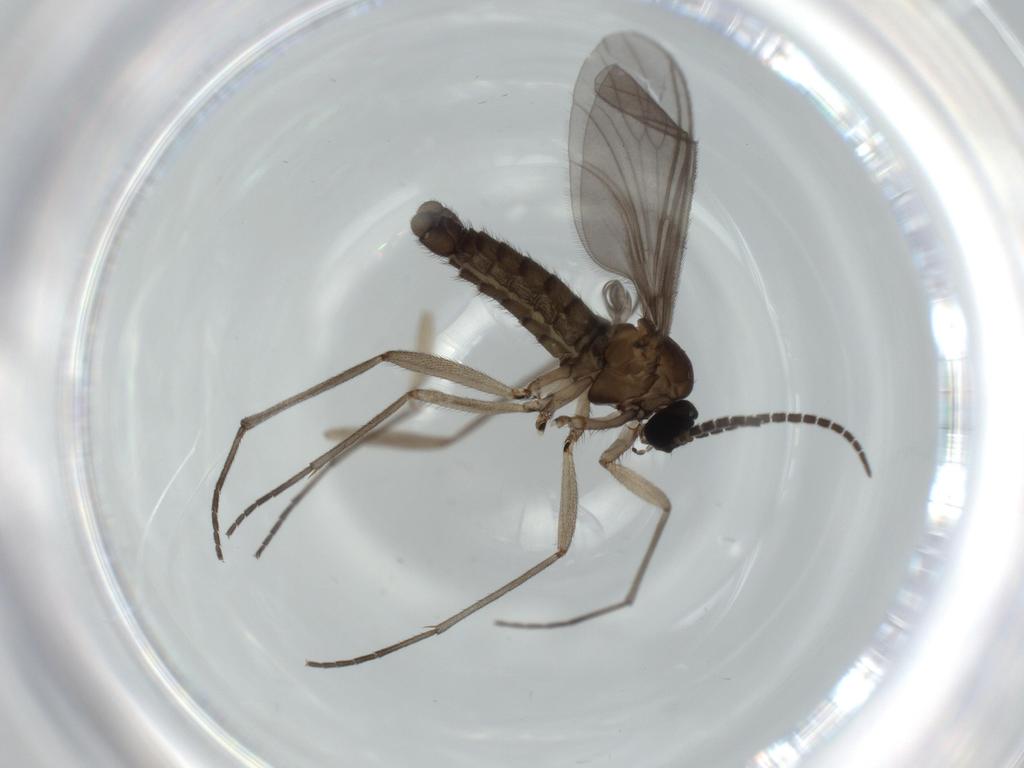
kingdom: Animalia
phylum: Arthropoda
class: Insecta
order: Diptera
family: Sciaridae
